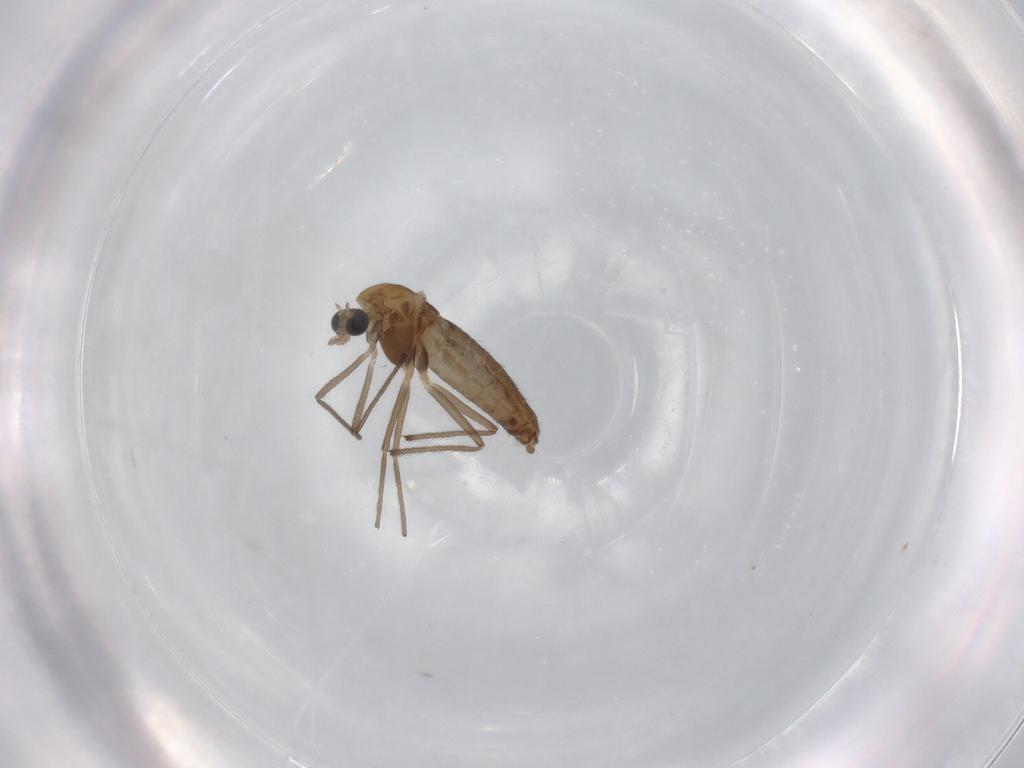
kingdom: Animalia
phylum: Arthropoda
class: Insecta
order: Diptera
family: Chironomidae
